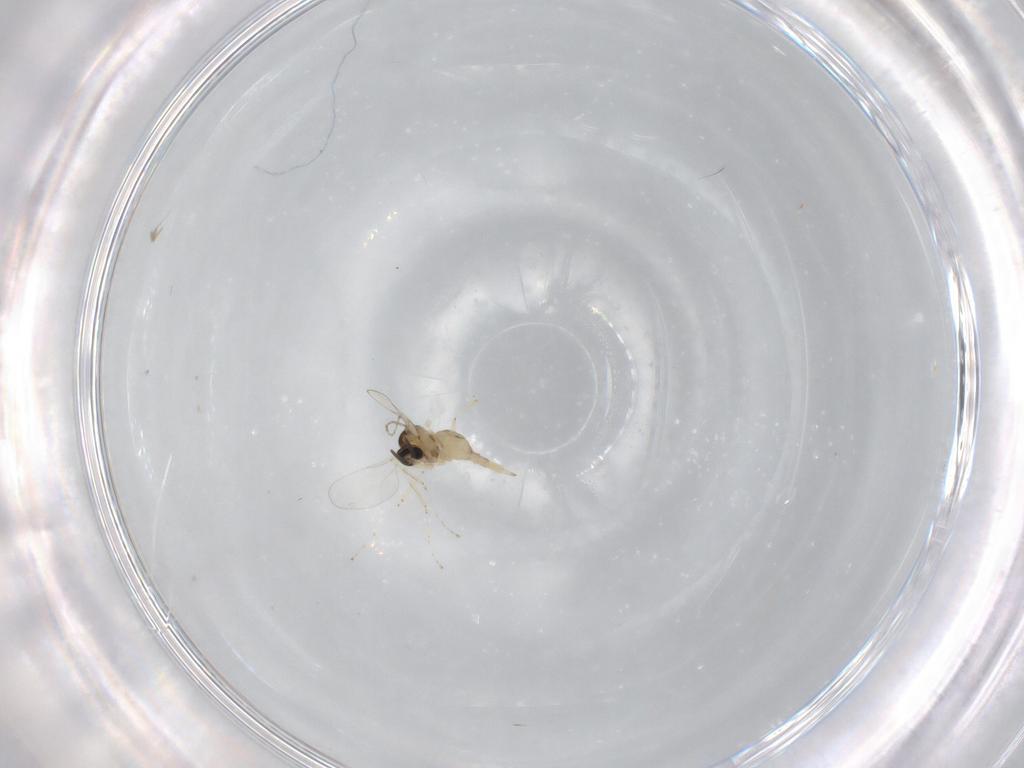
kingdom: Animalia
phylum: Arthropoda
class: Insecta
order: Diptera
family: Cecidomyiidae
